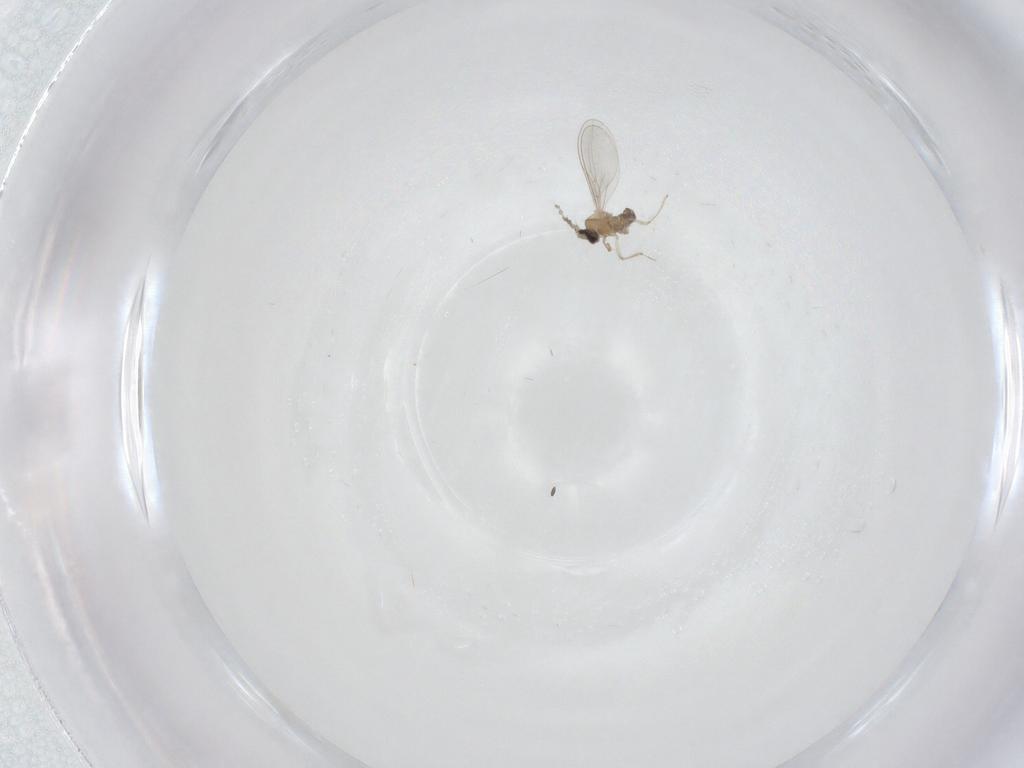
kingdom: Animalia
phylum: Arthropoda
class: Insecta
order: Diptera
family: Cecidomyiidae
